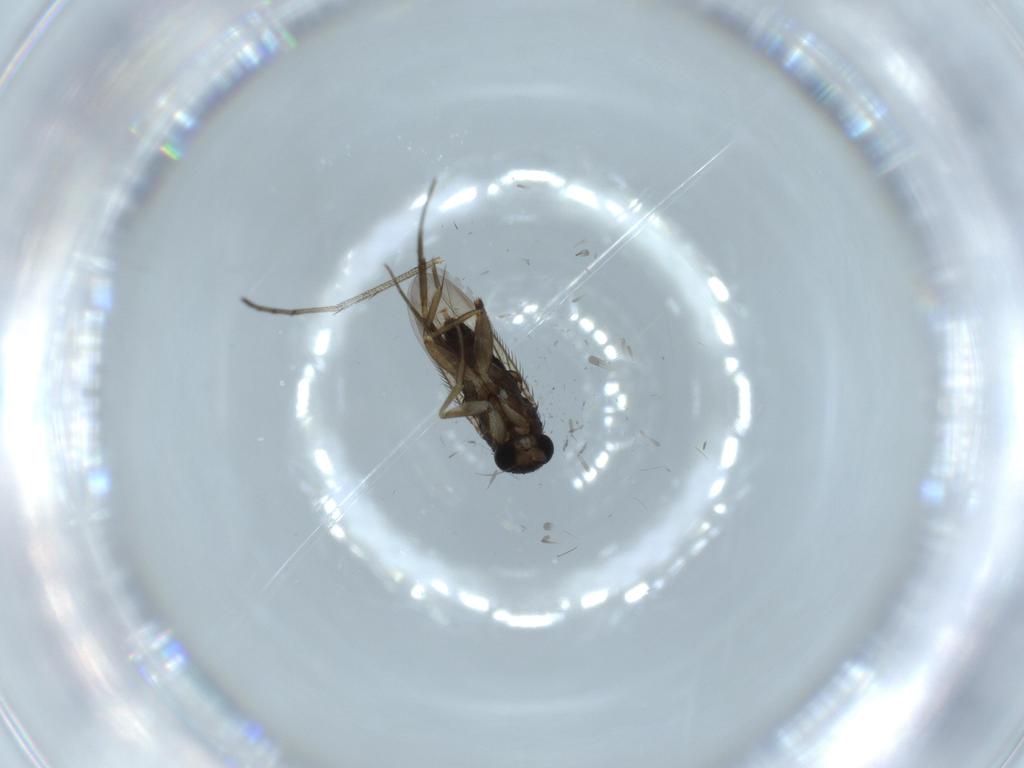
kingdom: Animalia
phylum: Arthropoda
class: Insecta
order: Diptera
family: Phoridae
